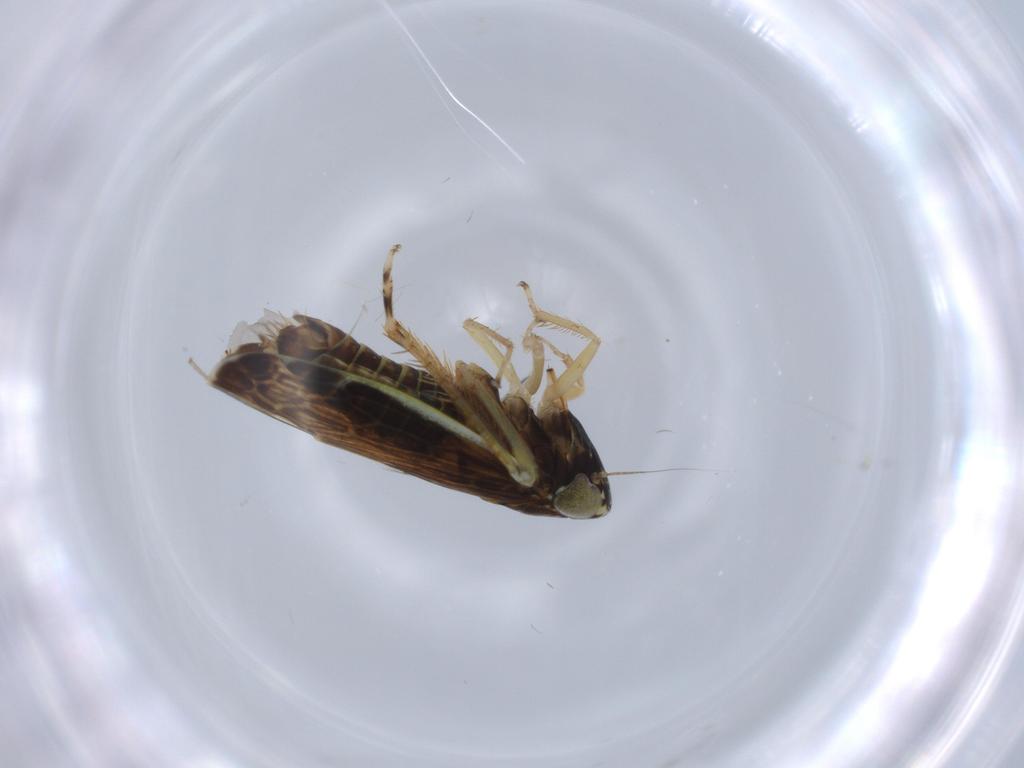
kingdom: Animalia
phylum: Arthropoda
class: Insecta
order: Hemiptera
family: Cicadellidae
